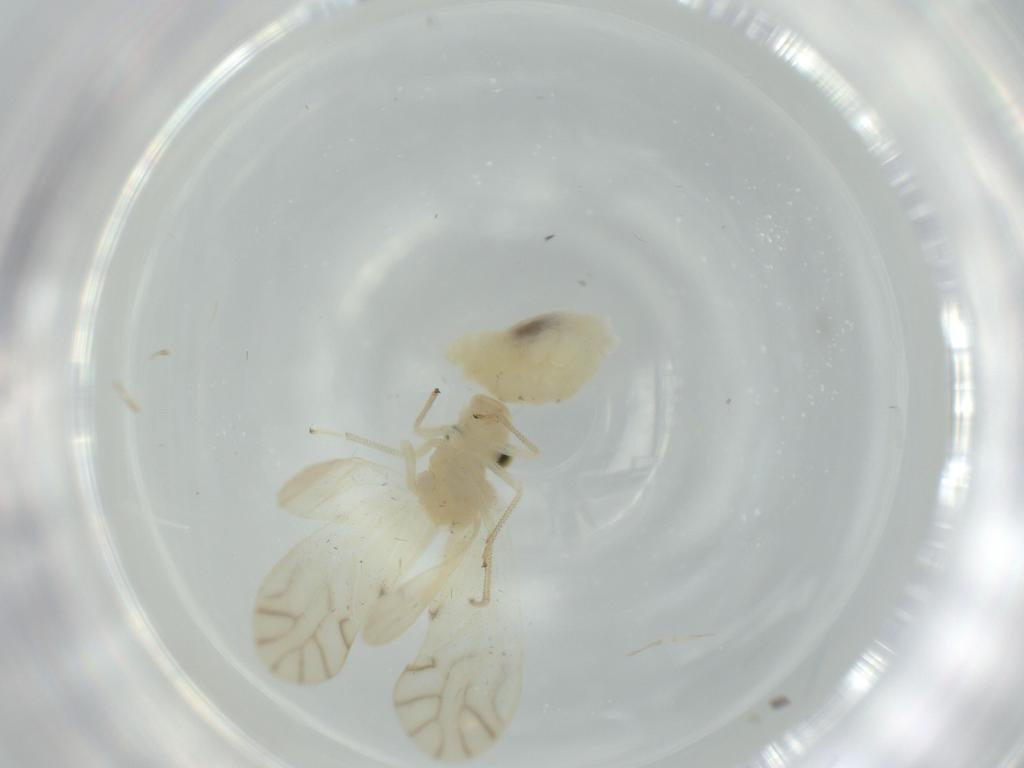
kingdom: Animalia
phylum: Arthropoda
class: Insecta
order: Psocodea
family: Caeciliusidae
